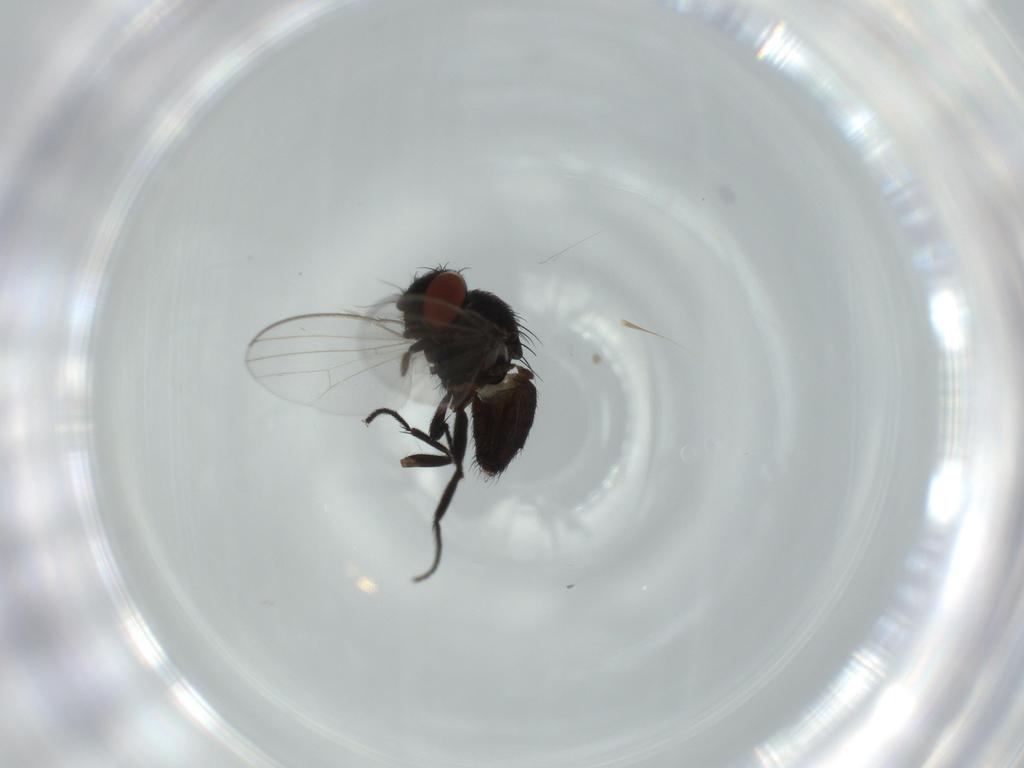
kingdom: Animalia
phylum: Arthropoda
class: Insecta
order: Diptera
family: Milichiidae
